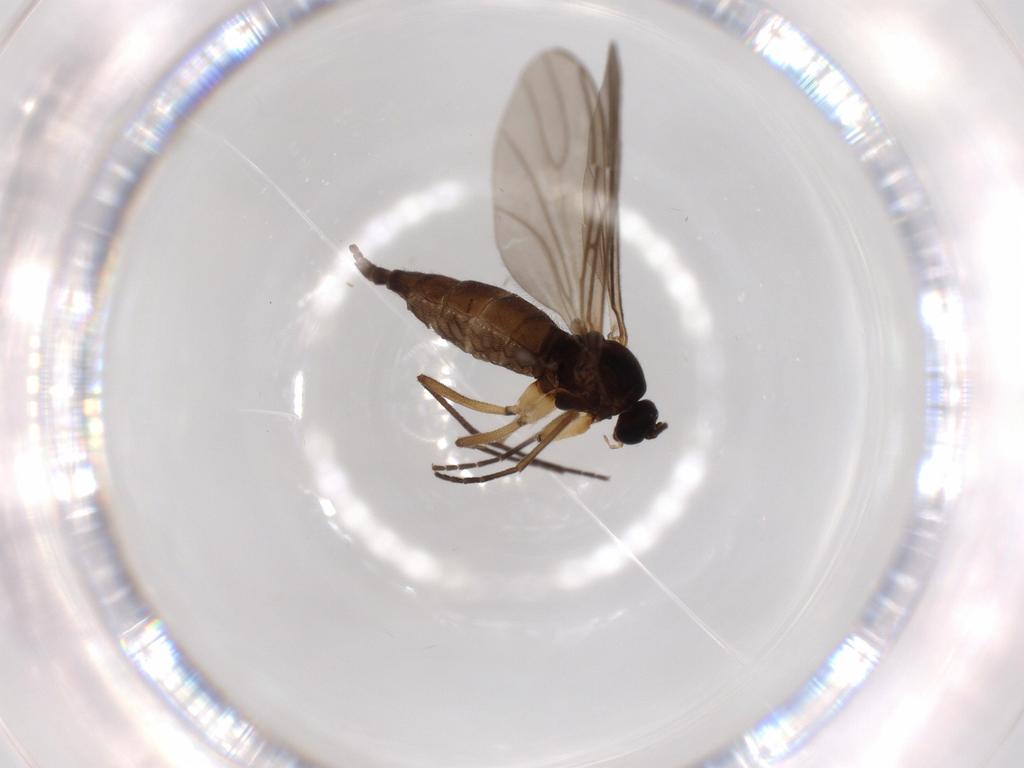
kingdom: Animalia
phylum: Arthropoda
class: Insecta
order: Diptera
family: Sciaridae
